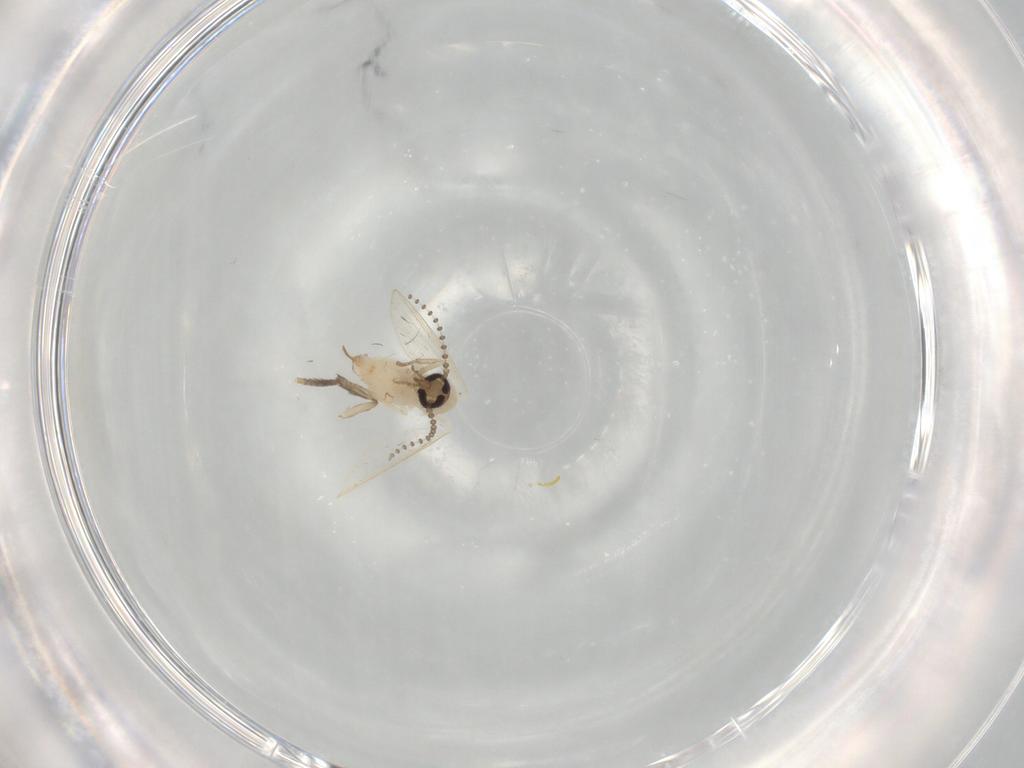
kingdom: Animalia
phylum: Arthropoda
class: Insecta
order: Diptera
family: Psychodidae
